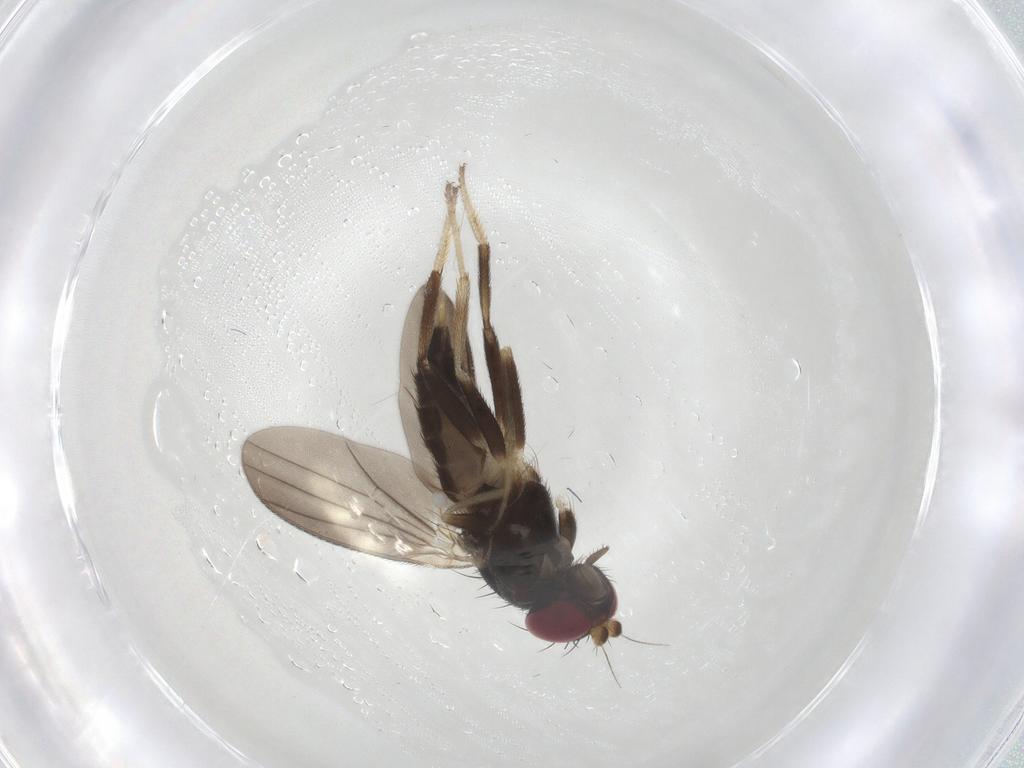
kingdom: Animalia
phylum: Arthropoda
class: Insecta
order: Diptera
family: Clusiidae
